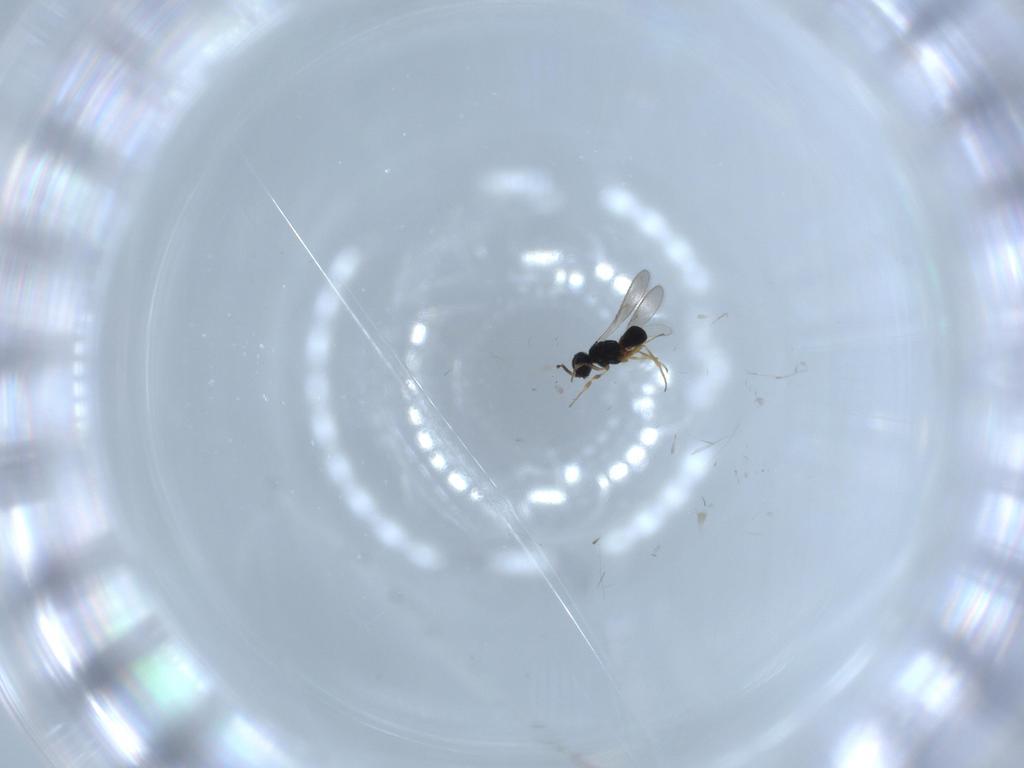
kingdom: Animalia
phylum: Arthropoda
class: Insecta
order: Hymenoptera
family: Scelionidae
